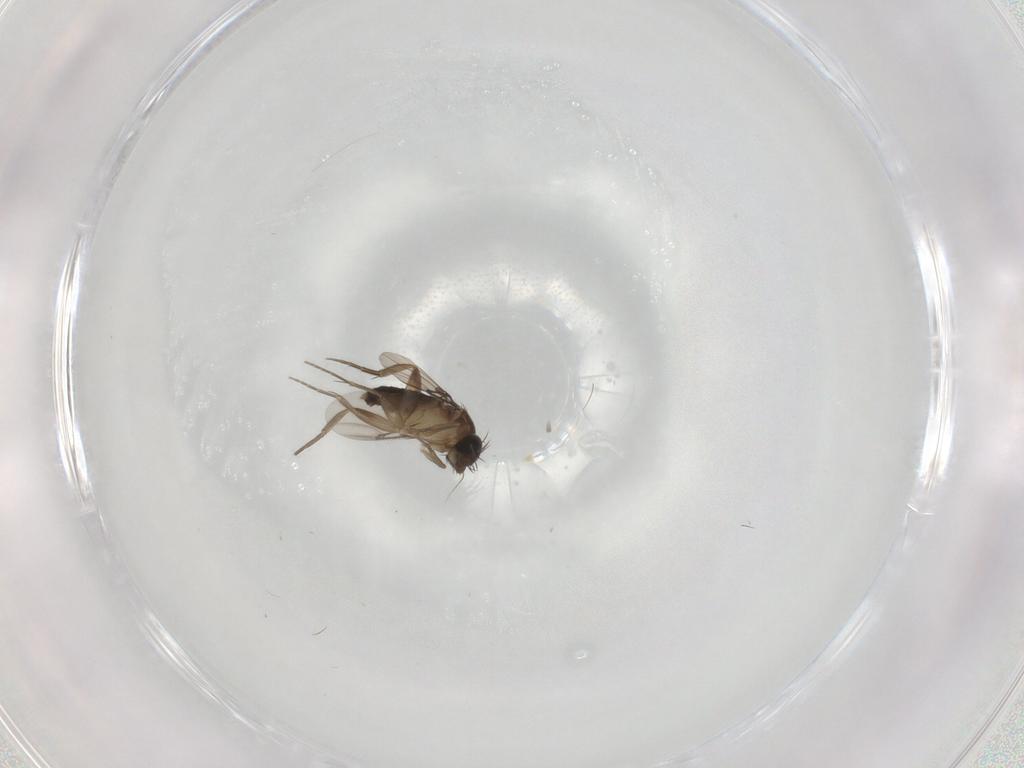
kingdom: Animalia
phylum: Arthropoda
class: Insecta
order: Diptera
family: Phoridae
